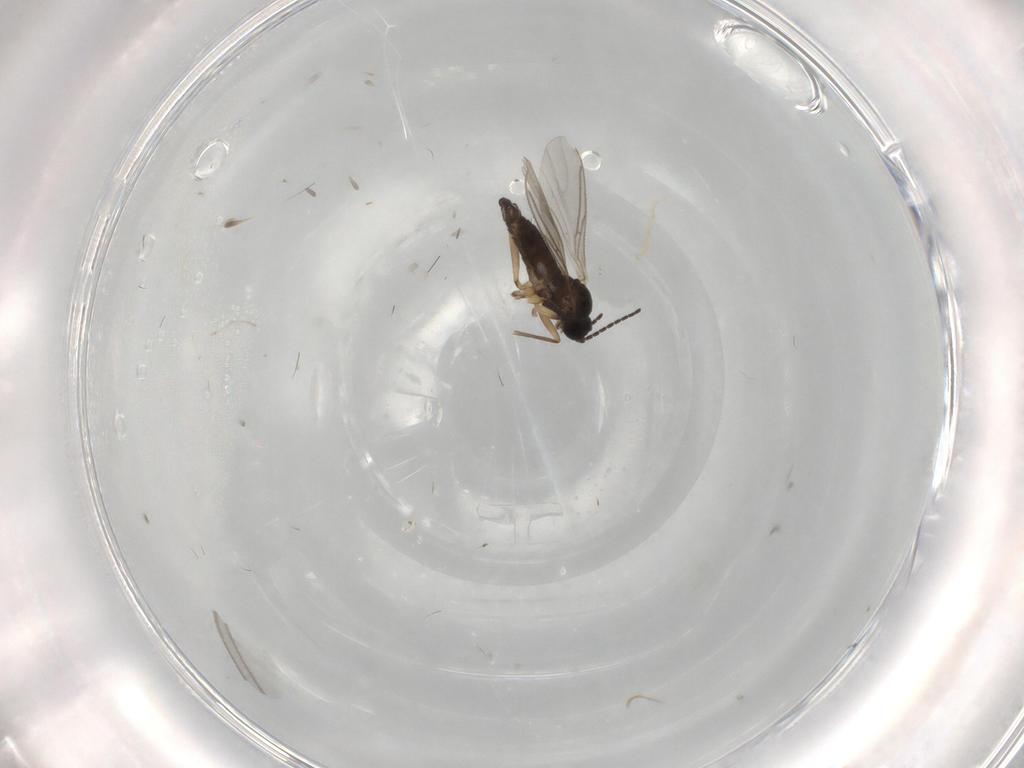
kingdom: Animalia
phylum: Arthropoda
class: Insecta
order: Diptera
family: Sciaridae
